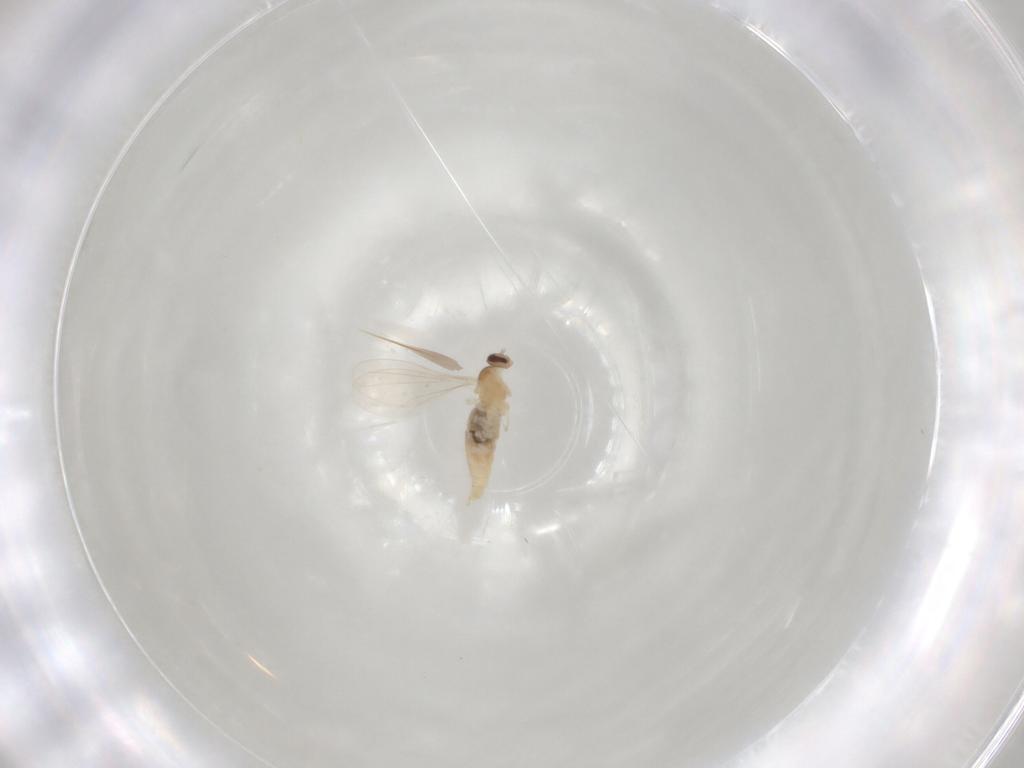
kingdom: Animalia
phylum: Arthropoda
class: Insecta
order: Diptera
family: Cecidomyiidae
